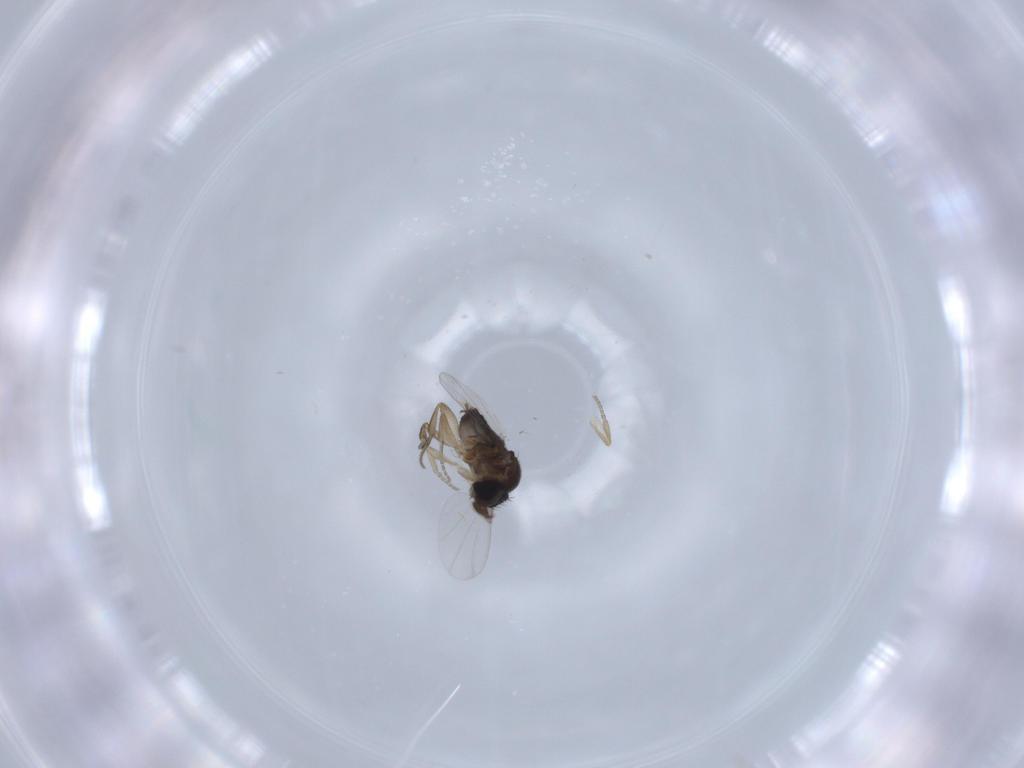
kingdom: Animalia
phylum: Arthropoda
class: Insecta
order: Diptera
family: Phoridae
